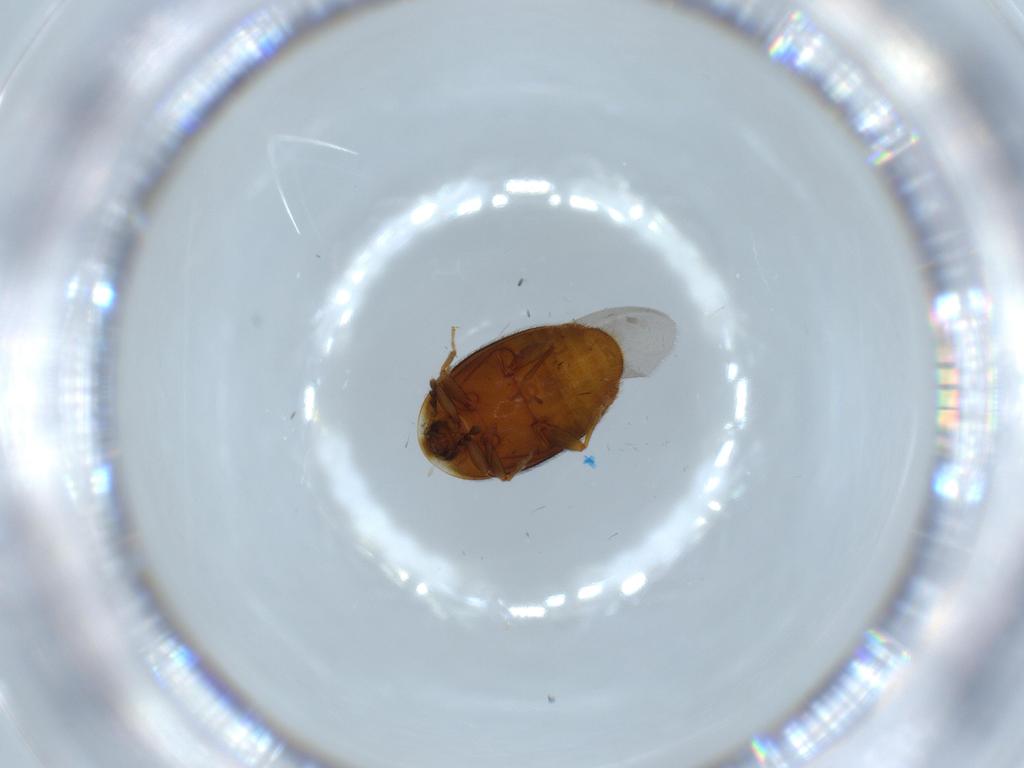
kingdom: Animalia
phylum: Arthropoda
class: Insecta
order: Coleoptera
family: Corylophidae
